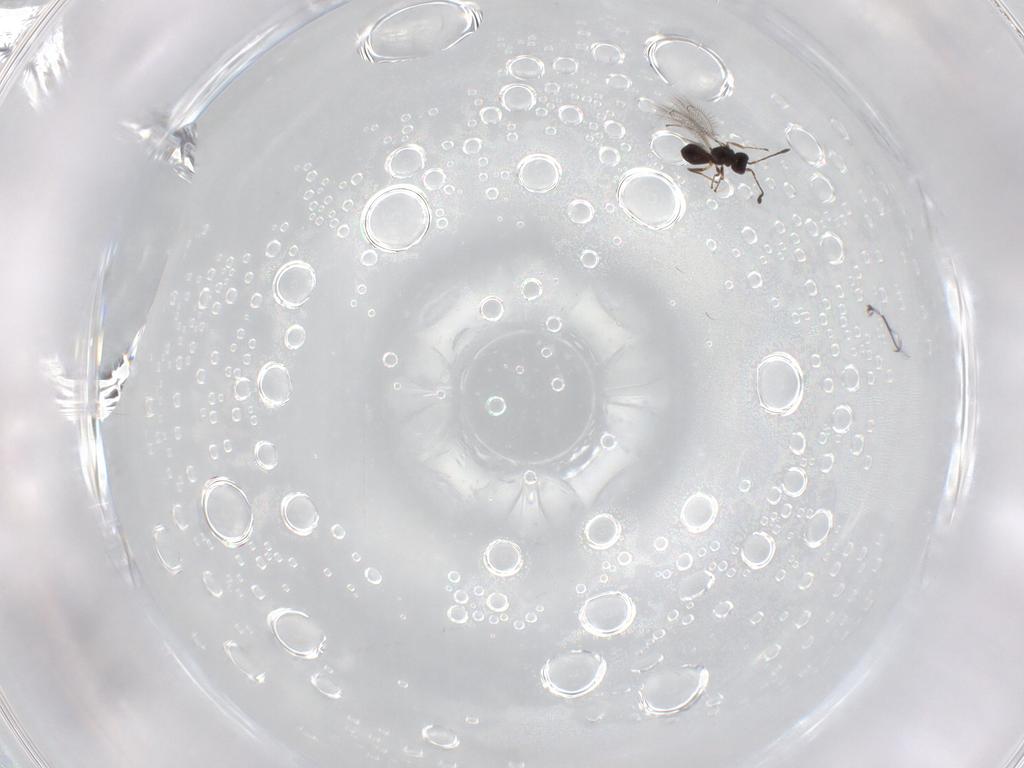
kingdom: Animalia
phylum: Arthropoda
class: Insecta
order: Hymenoptera
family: Mymaridae
